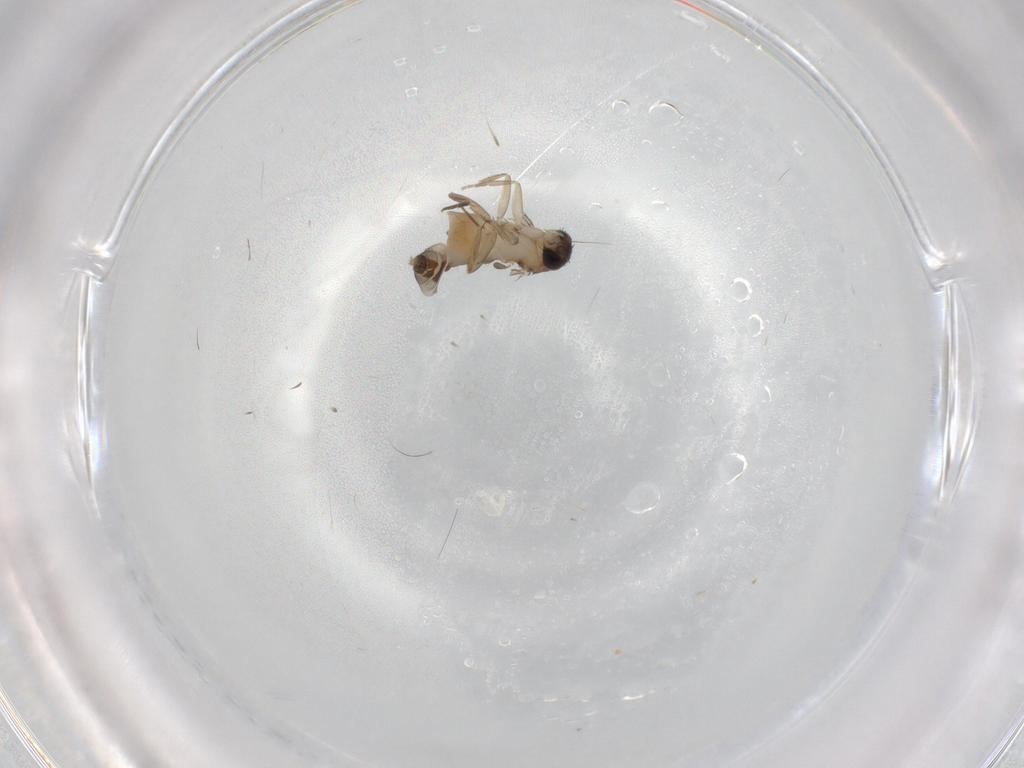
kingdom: Animalia
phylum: Arthropoda
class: Insecta
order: Diptera
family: Phoridae
